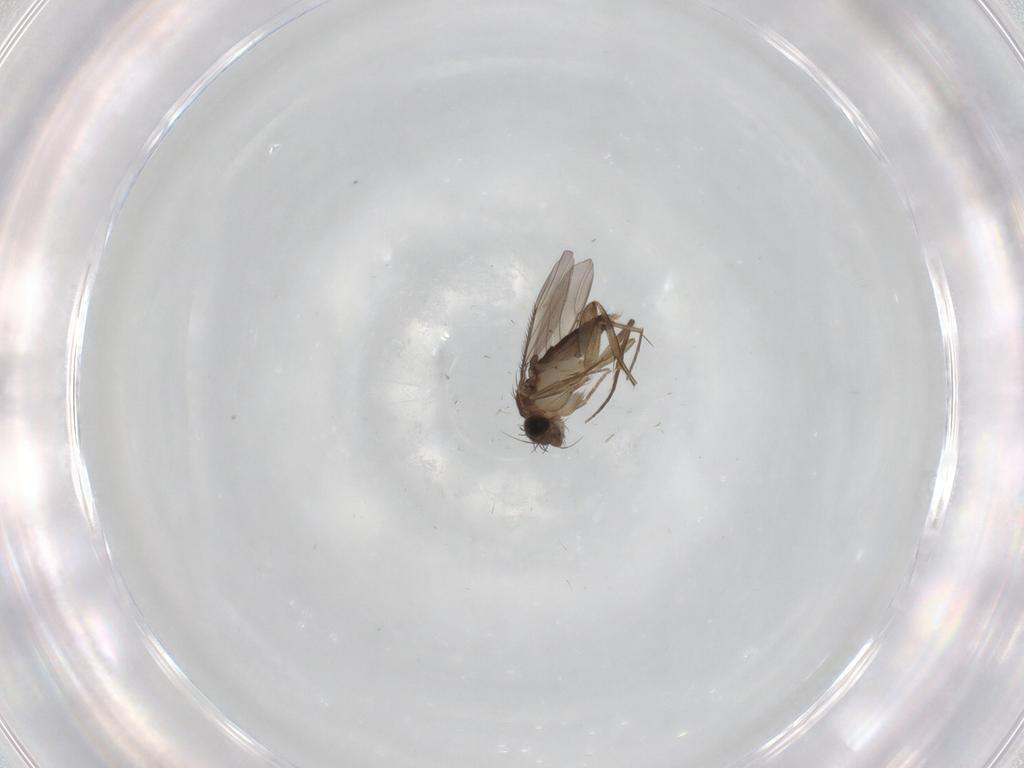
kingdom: Animalia
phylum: Arthropoda
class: Insecta
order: Diptera
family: Phoridae
